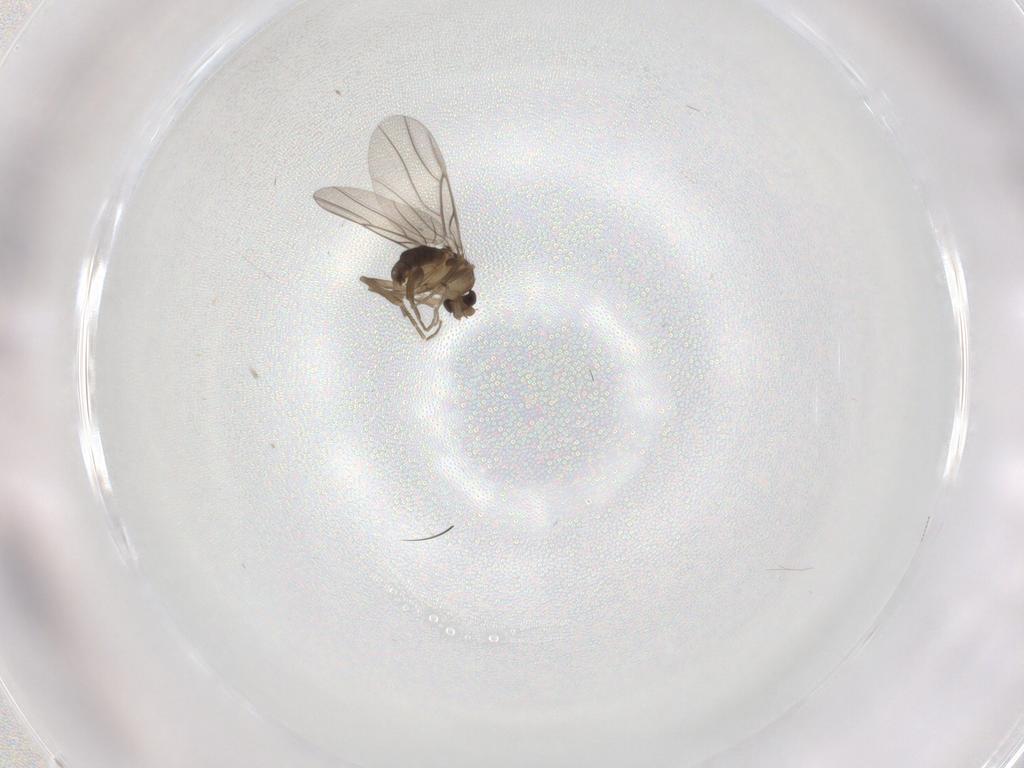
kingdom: Animalia
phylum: Arthropoda
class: Insecta
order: Diptera
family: Phoridae
